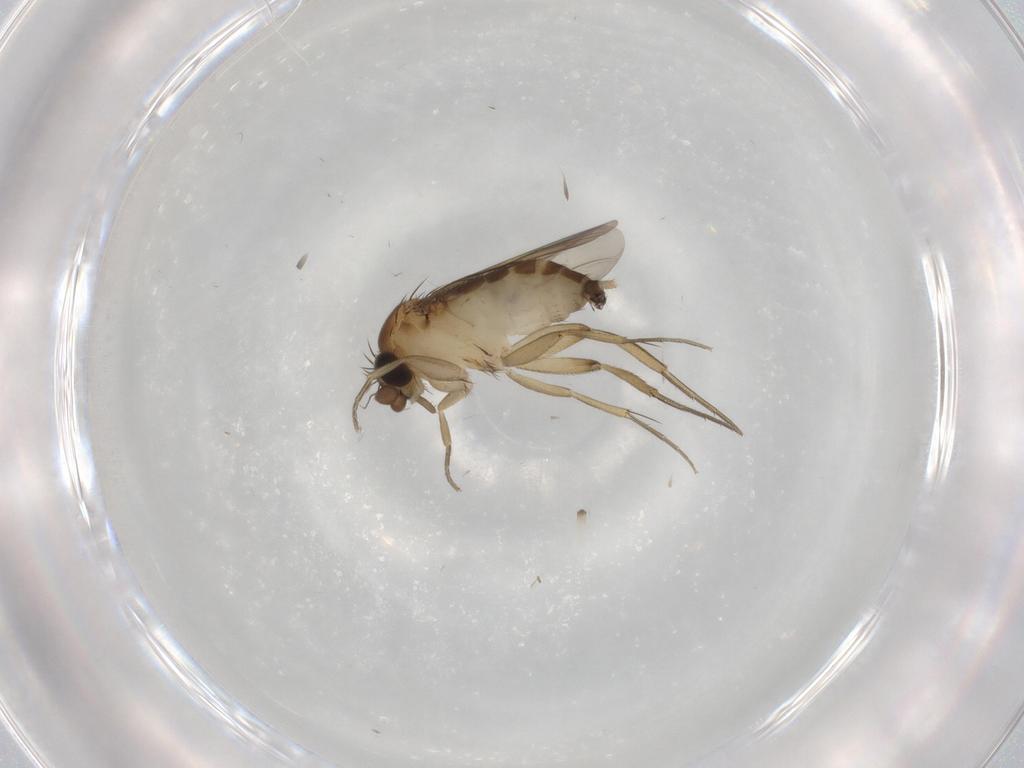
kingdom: Animalia
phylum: Arthropoda
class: Insecta
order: Diptera
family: Phoridae
